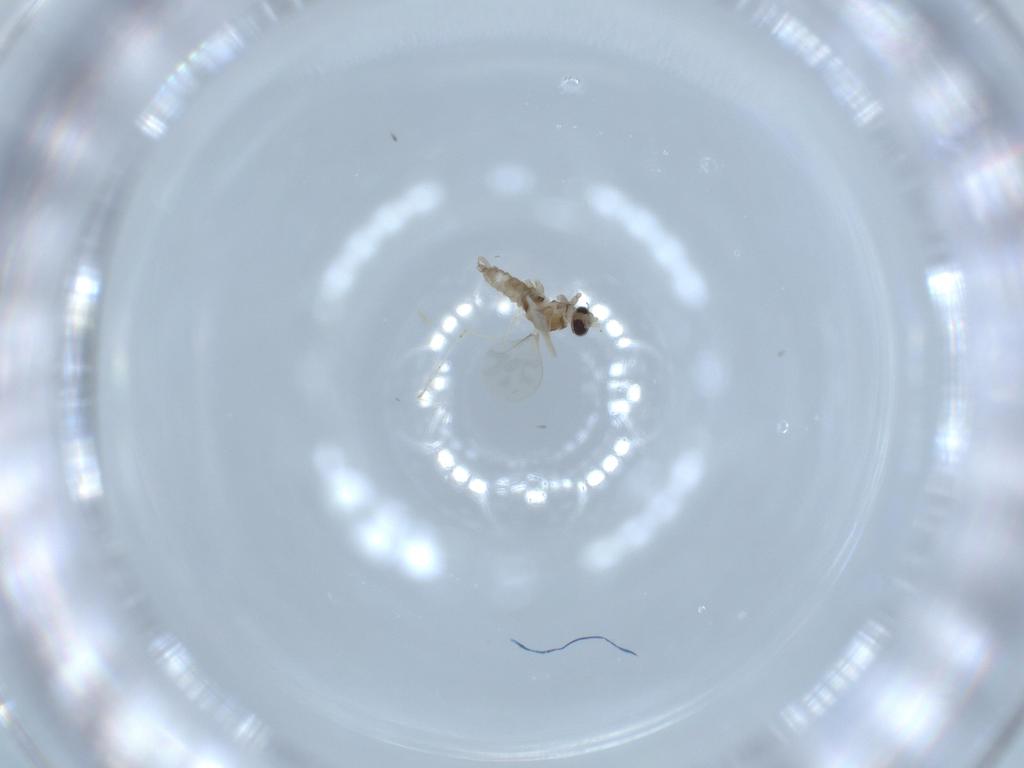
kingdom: Animalia
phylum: Arthropoda
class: Insecta
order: Diptera
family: Cecidomyiidae
